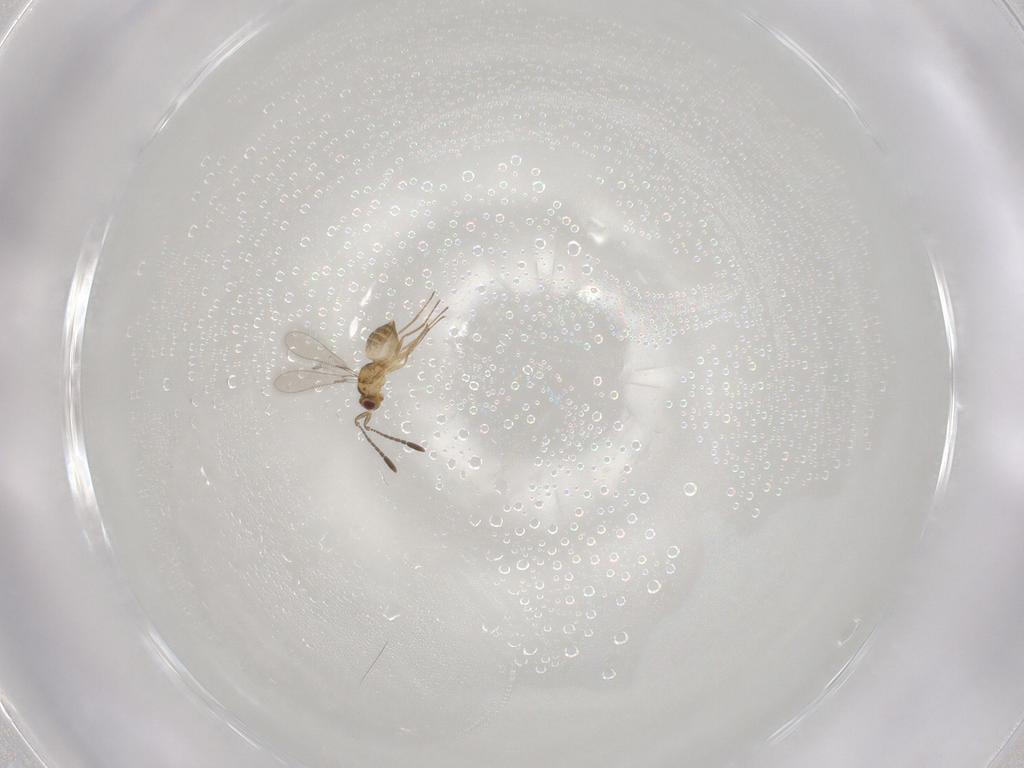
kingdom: Animalia
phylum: Arthropoda
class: Insecta
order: Hymenoptera
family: Mymaridae
